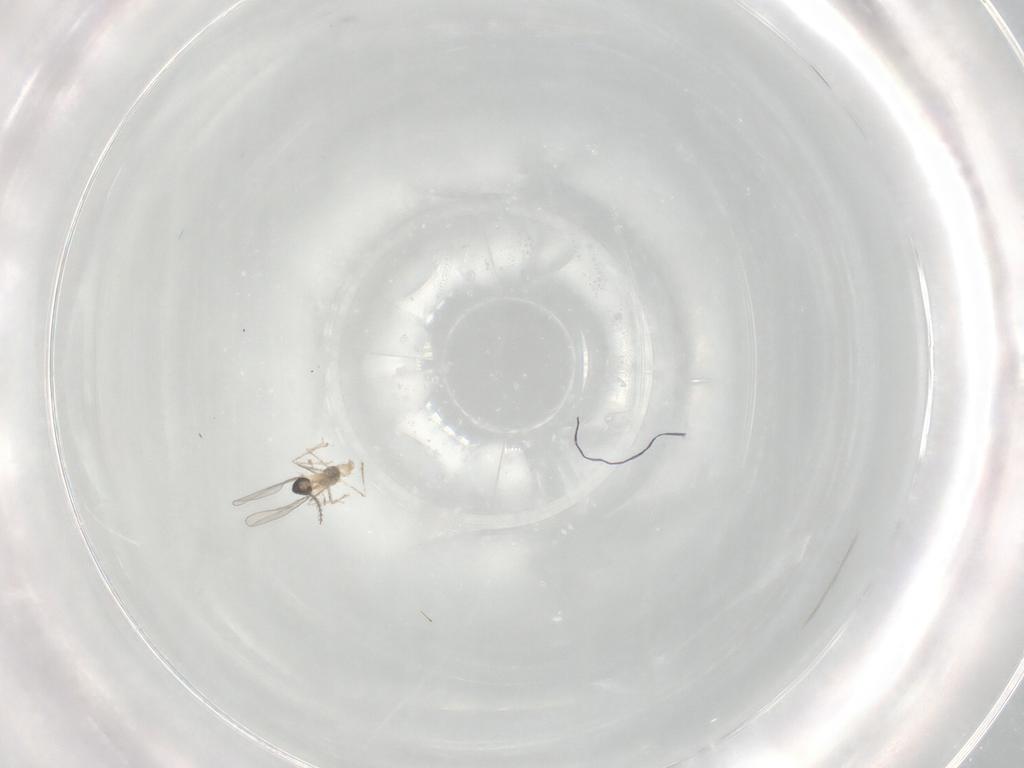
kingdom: Animalia
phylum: Arthropoda
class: Insecta
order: Diptera
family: Cecidomyiidae
